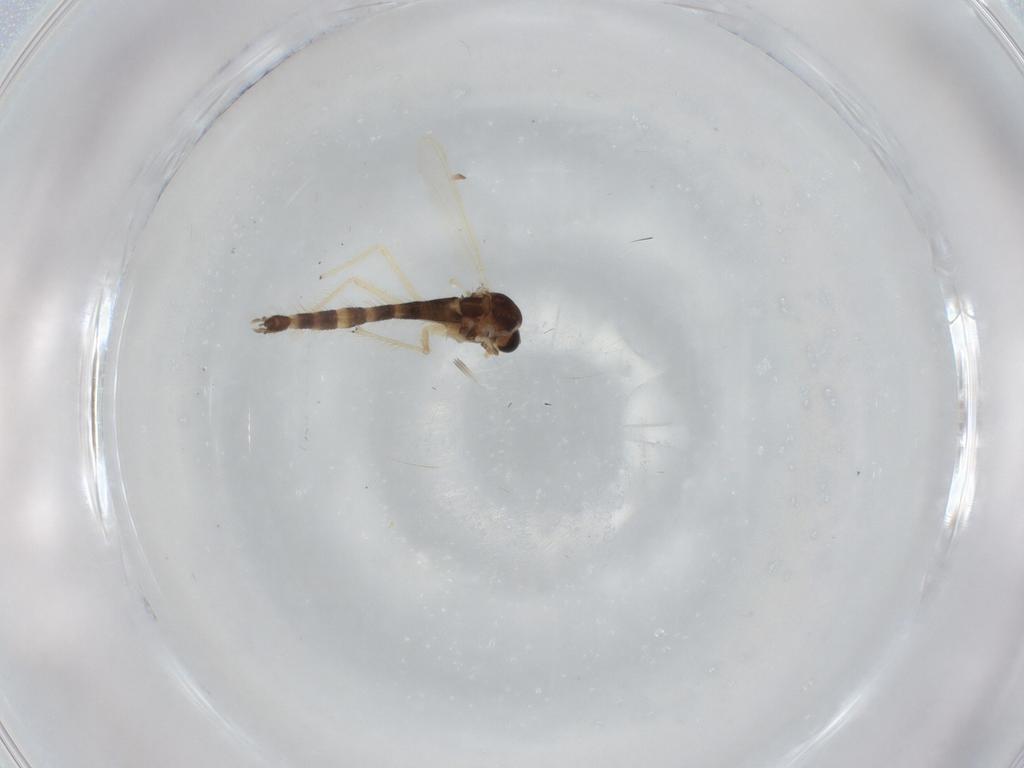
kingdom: Animalia
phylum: Arthropoda
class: Insecta
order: Diptera
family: Chironomidae
